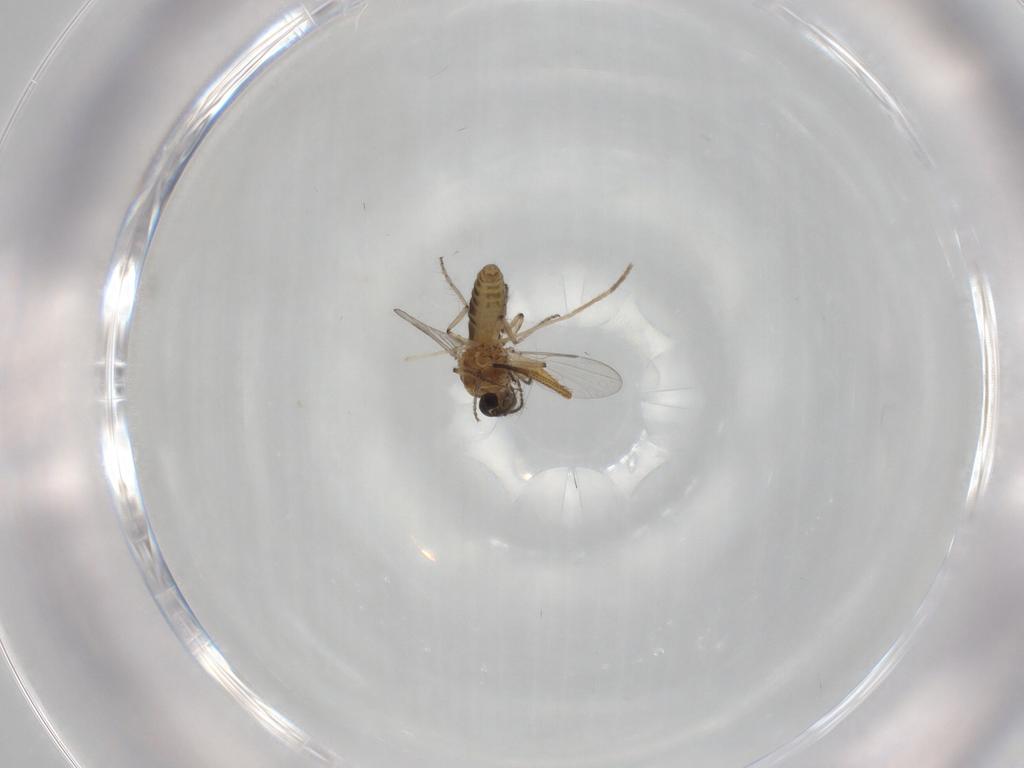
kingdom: Animalia
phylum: Arthropoda
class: Insecta
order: Diptera
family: Ceratopogonidae
